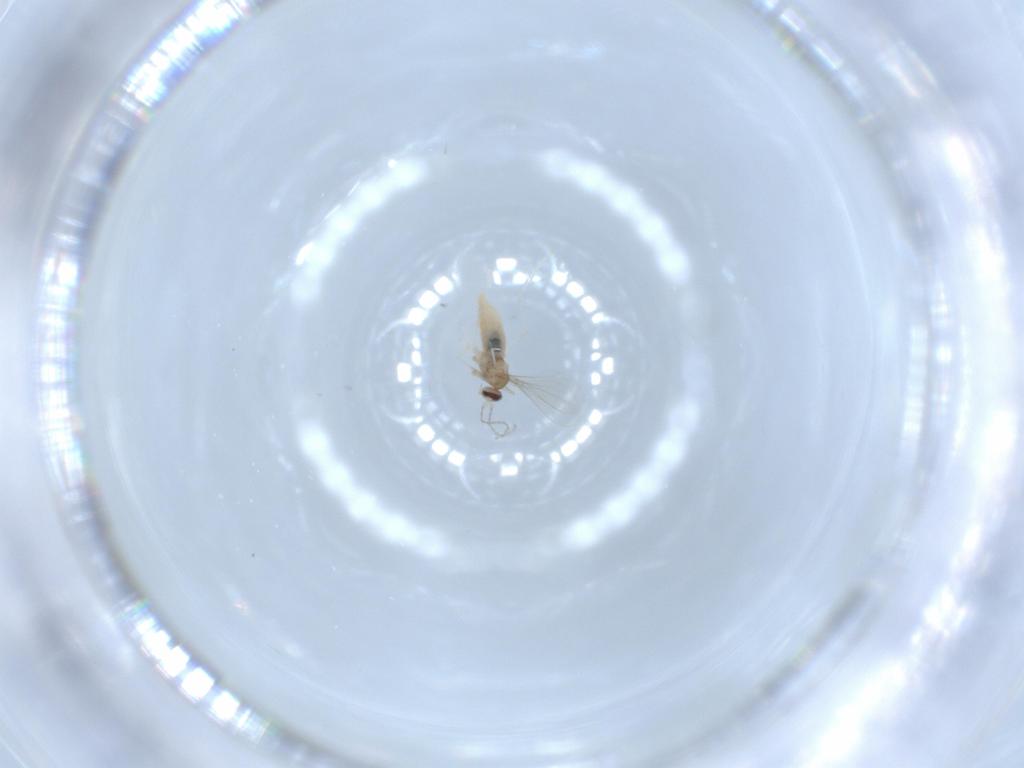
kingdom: Animalia
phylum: Arthropoda
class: Insecta
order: Diptera
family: Cecidomyiidae
